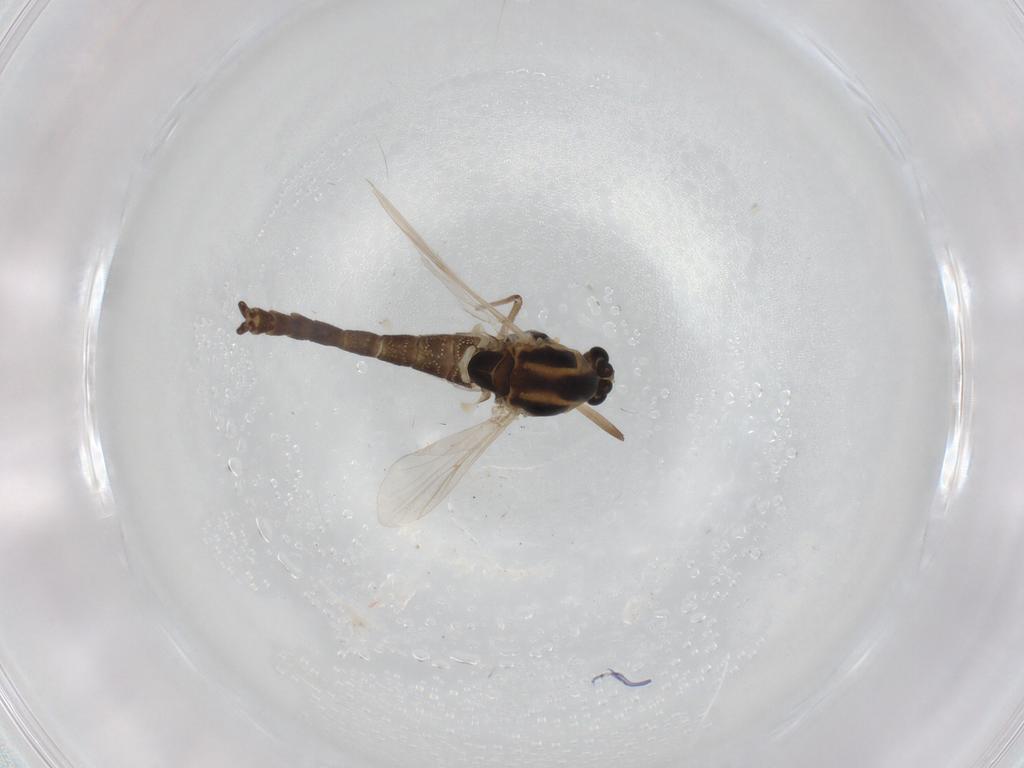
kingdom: Animalia
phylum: Arthropoda
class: Insecta
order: Diptera
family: Chironomidae
